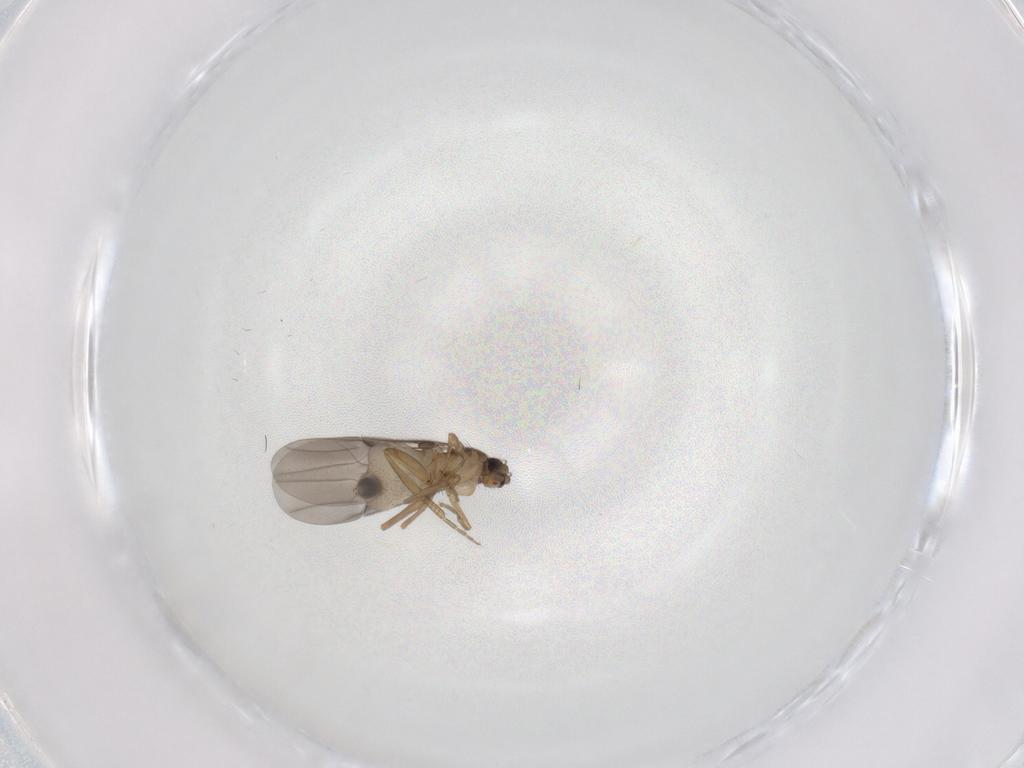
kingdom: Animalia
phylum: Arthropoda
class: Insecta
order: Diptera
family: Phoridae
